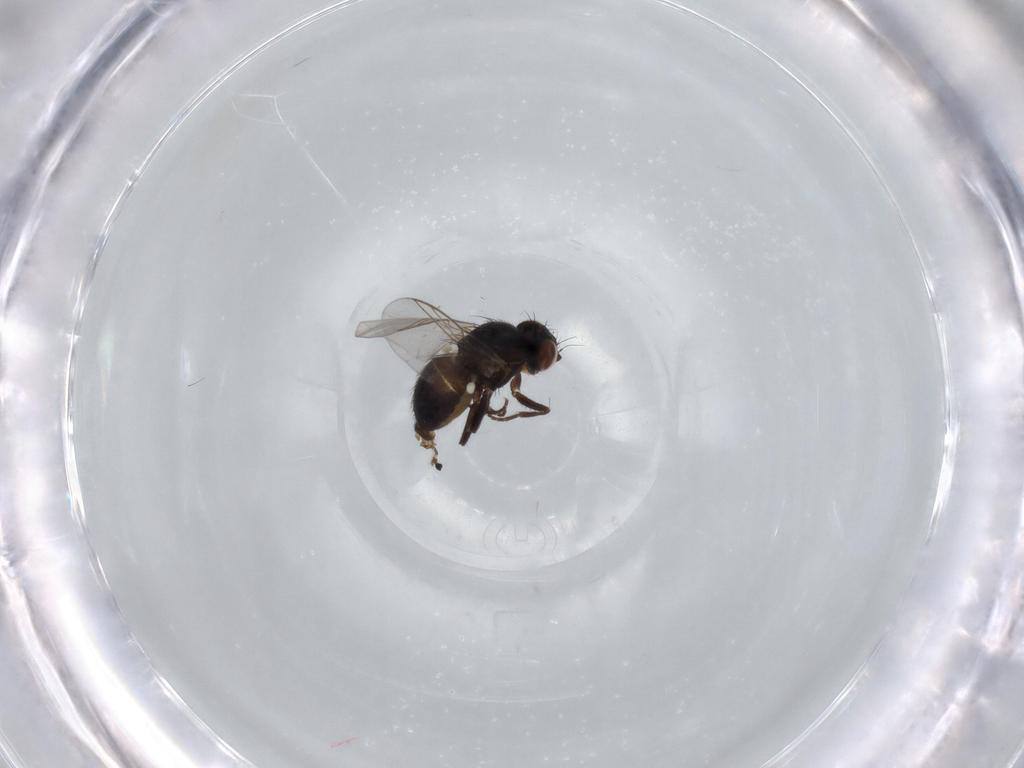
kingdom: Animalia
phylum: Arthropoda
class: Insecta
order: Diptera
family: Agromyzidae
